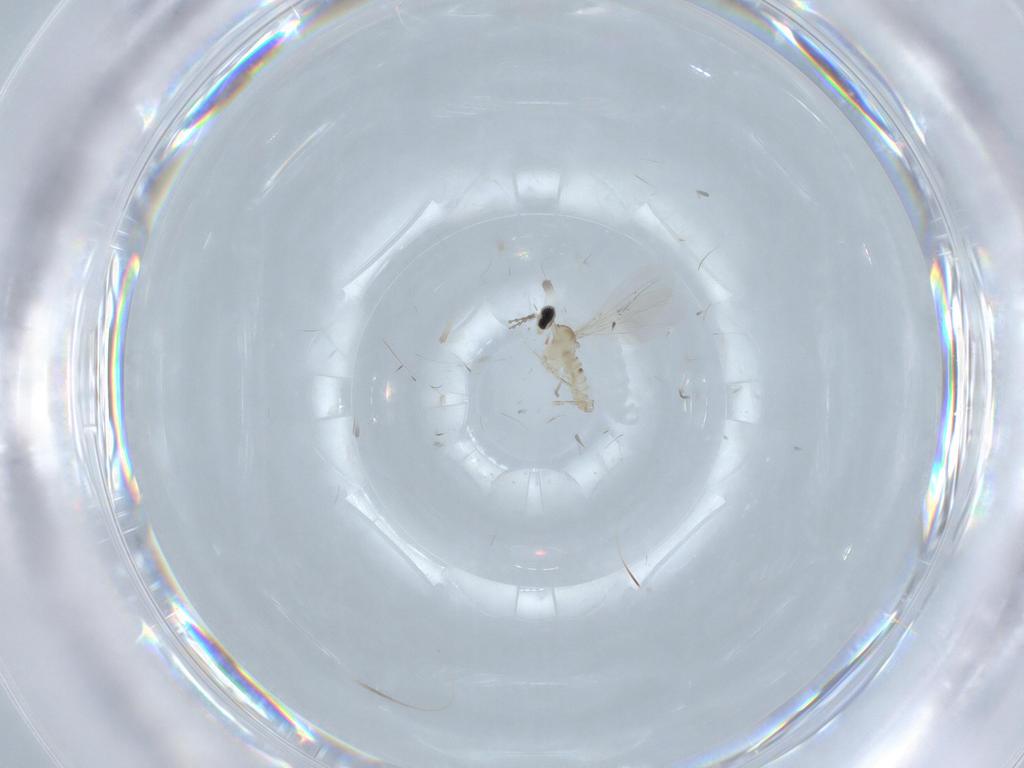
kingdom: Animalia
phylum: Arthropoda
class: Insecta
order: Diptera
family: Cecidomyiidae
